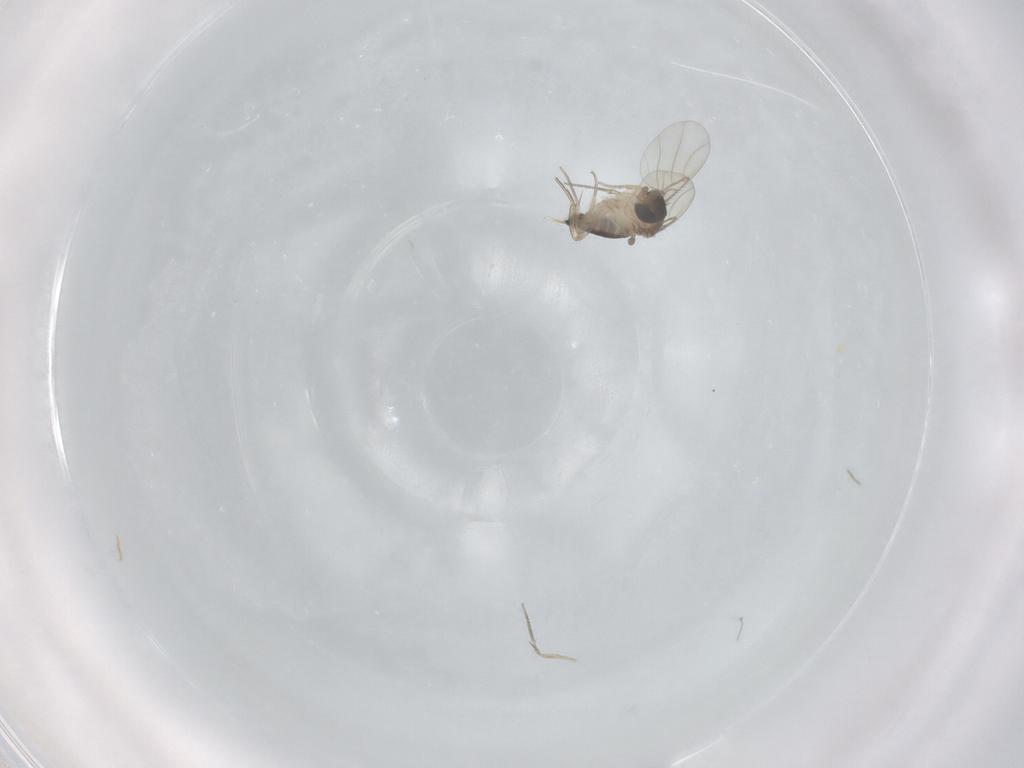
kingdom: Animalia
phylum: Arthropoda
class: Insecta
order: Diptera
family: Phoridae
